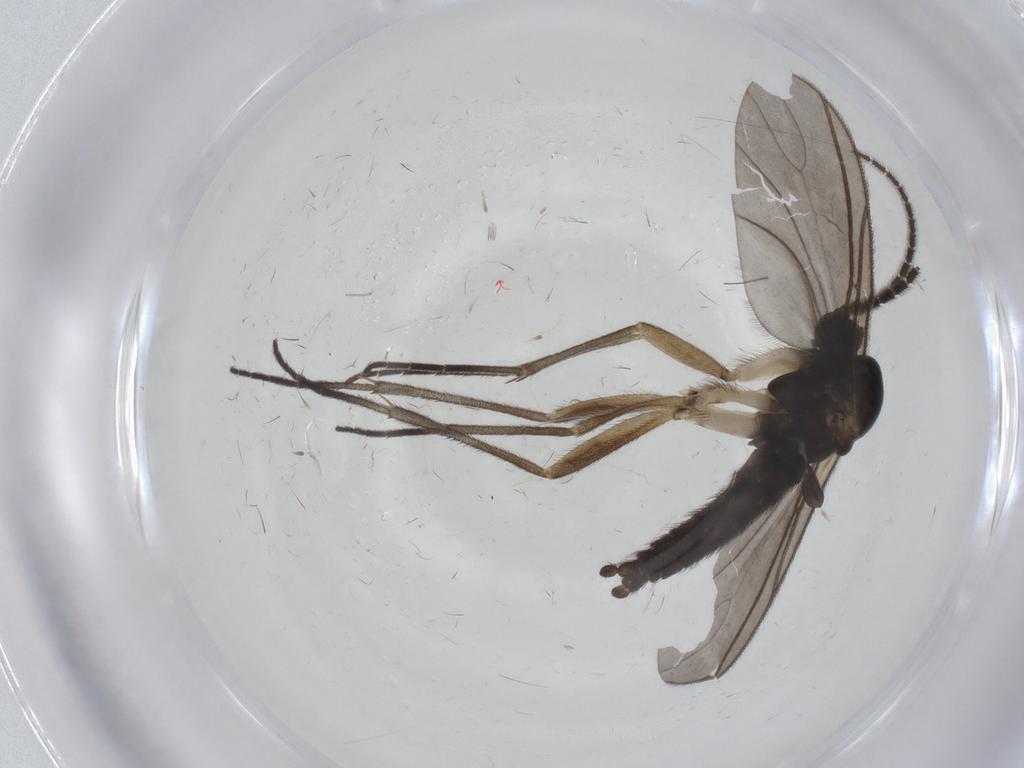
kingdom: Animalia
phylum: Arthropoda
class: Insecta
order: Diptera
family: Sciaridae
